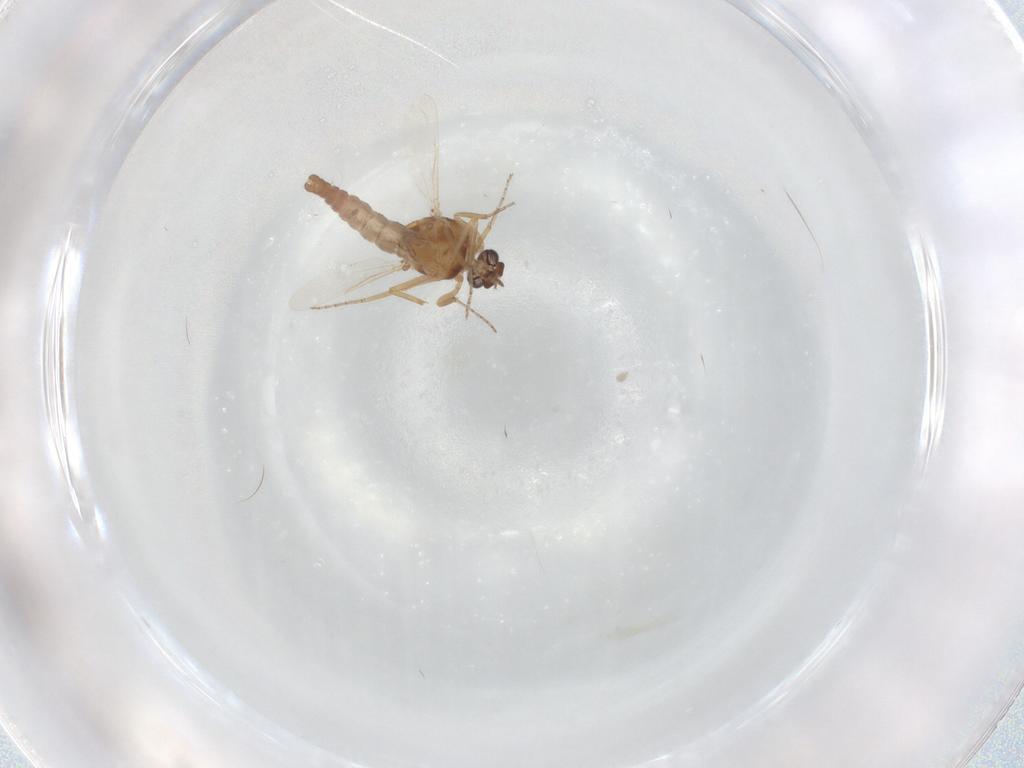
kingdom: Animalia
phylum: Arthropoda
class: Insecta
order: Diptera
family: Ceratopogonidae
